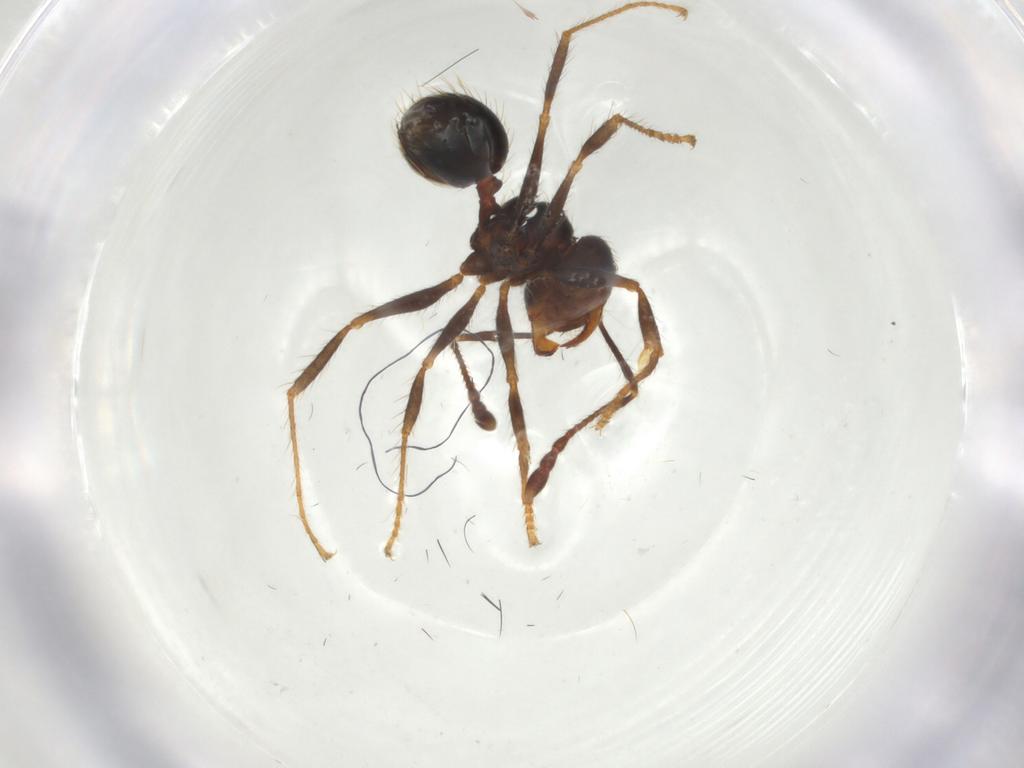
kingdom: Animalia
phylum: Arthropoda
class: Insecta
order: Hymenoptera
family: Formicidae
